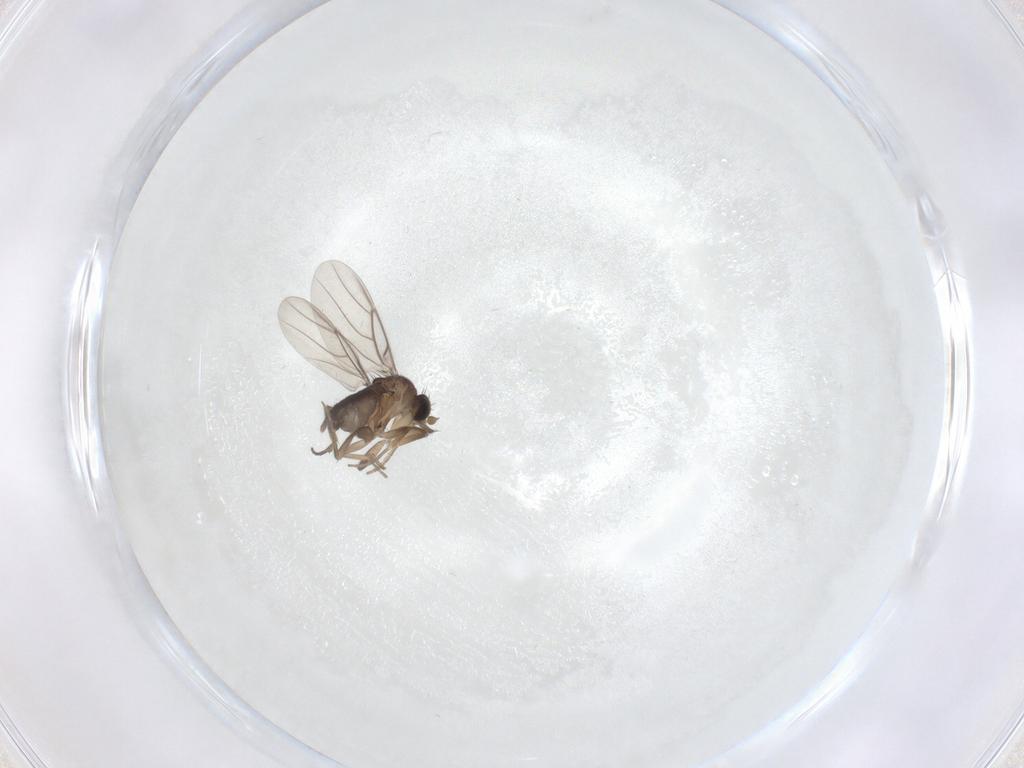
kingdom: Animalia
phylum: Arthropoda
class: Insecta
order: Diptera
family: Phoridae
